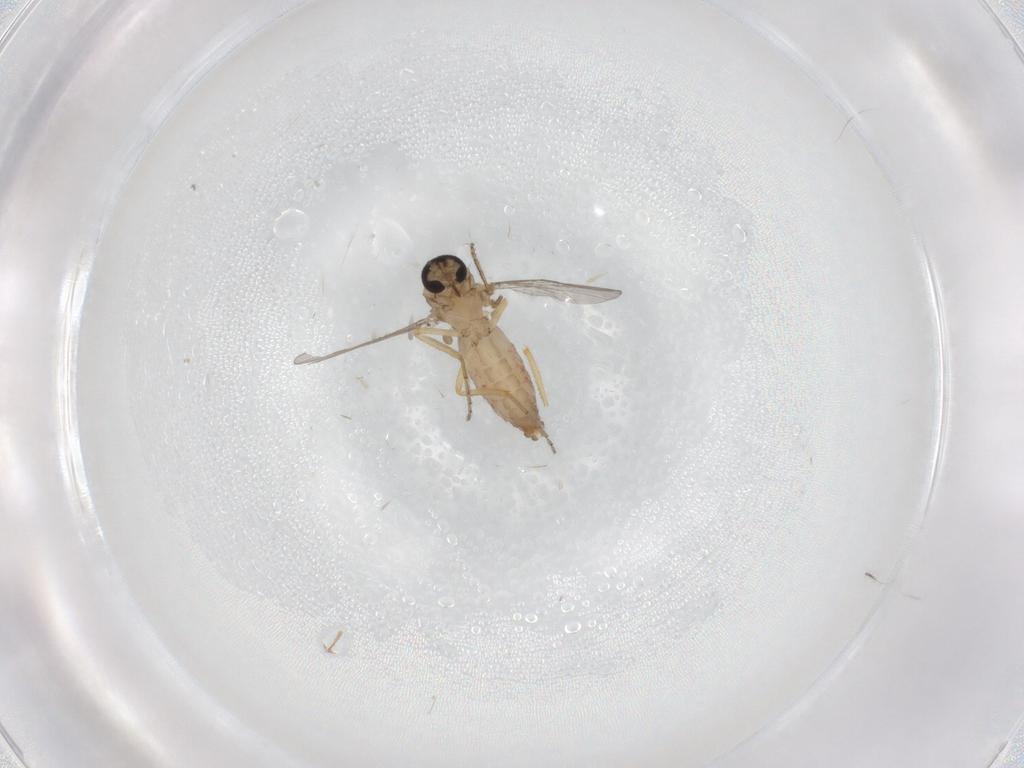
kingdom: Animalia
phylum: Arthropoda
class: Insecta
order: Diptera
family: Ceratopogonidae
